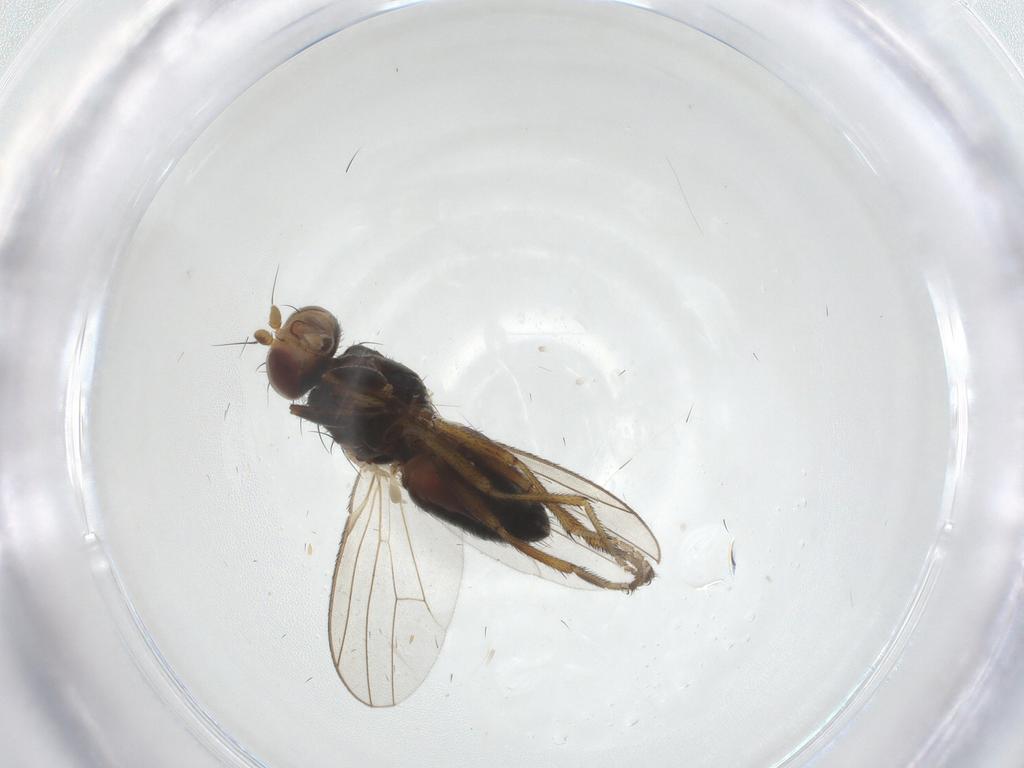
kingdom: Animalia
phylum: Arthropoda
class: Insecta
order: Diptera
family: Heleomyzidae
